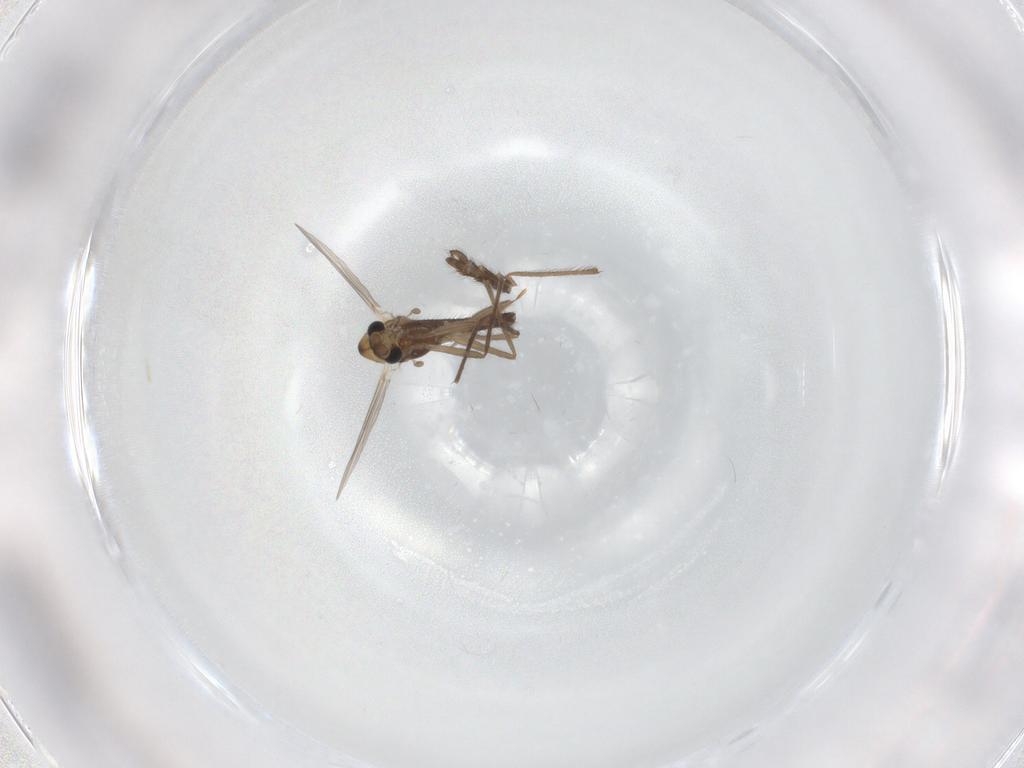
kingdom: Animalia
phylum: Arthropoda
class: Insecta
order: Diptera
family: Chironomidae
